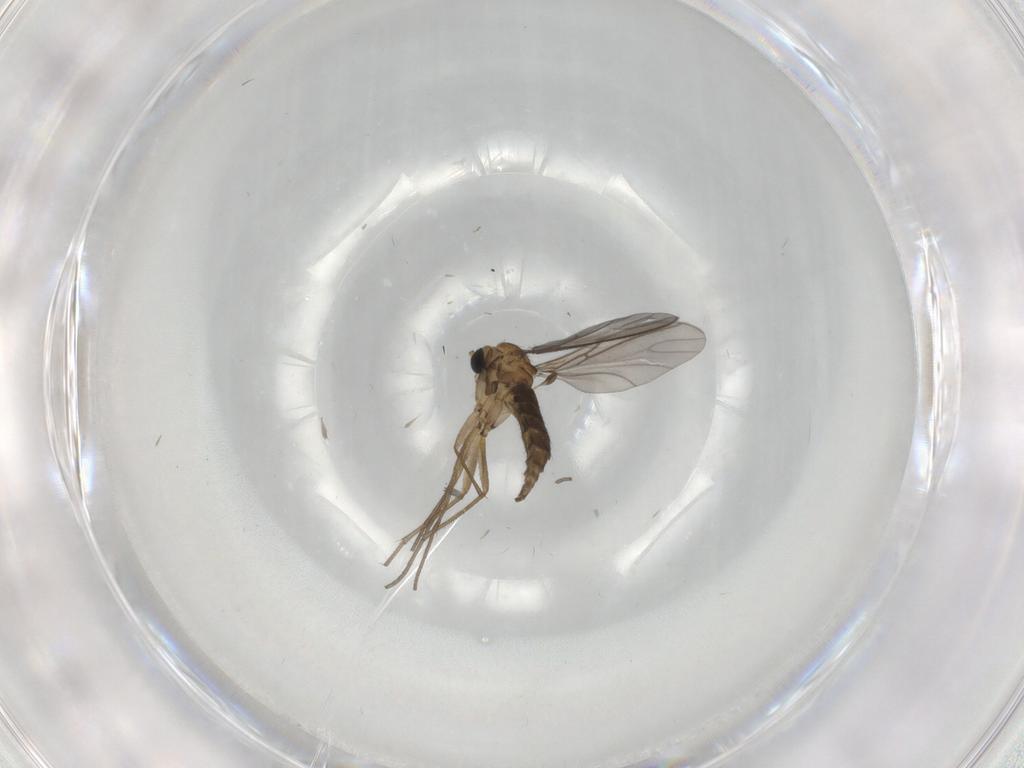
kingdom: Animalia
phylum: Arthropoda
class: Insecta
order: Diptera
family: Sciaridae
